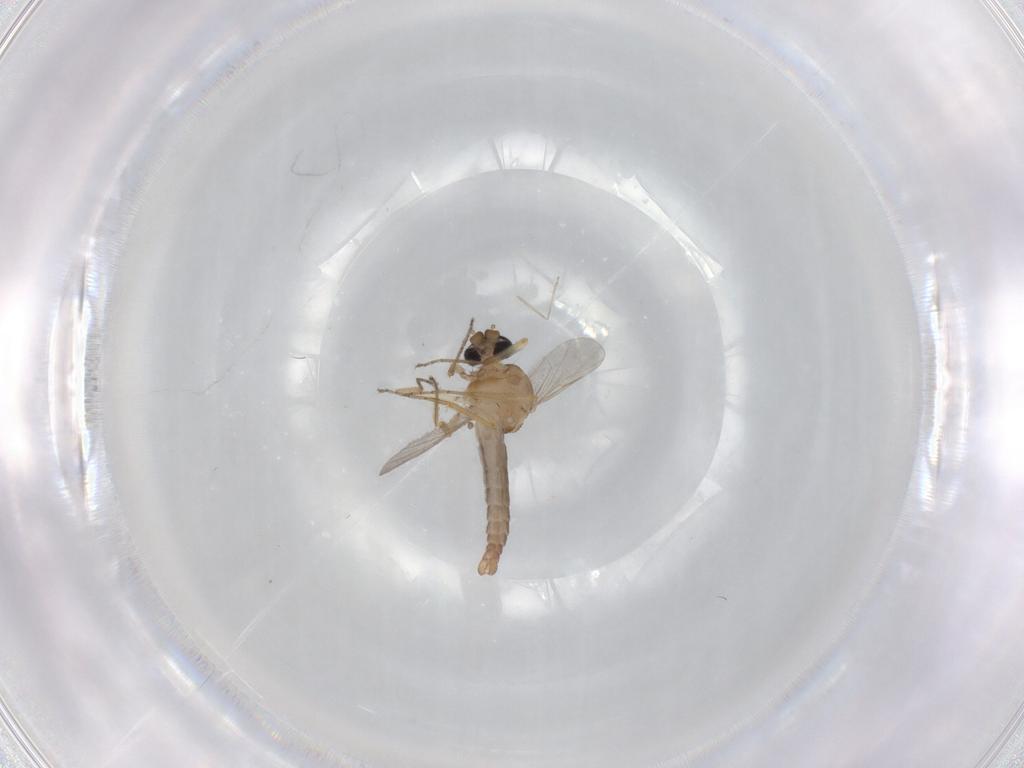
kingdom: Animalia
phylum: Arthropoda
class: Insecta
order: Diptera
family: Ceratopogonidae
